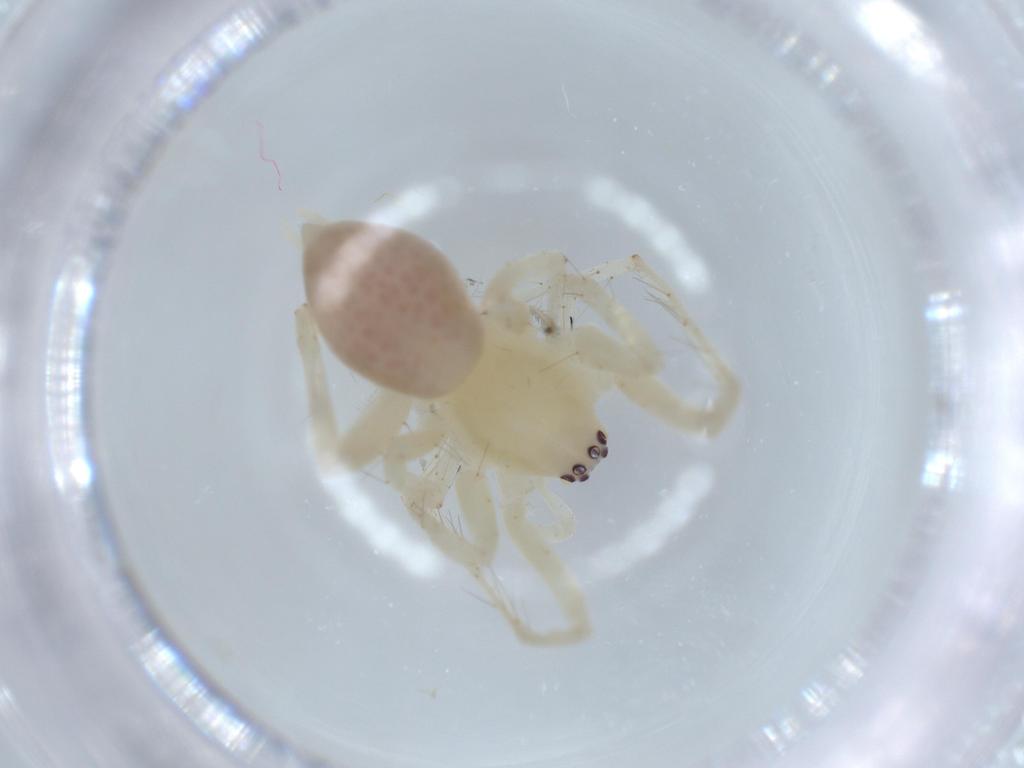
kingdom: Animalia
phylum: Arthropoda
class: Arachnida
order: Araneae
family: Anyphaenidae
